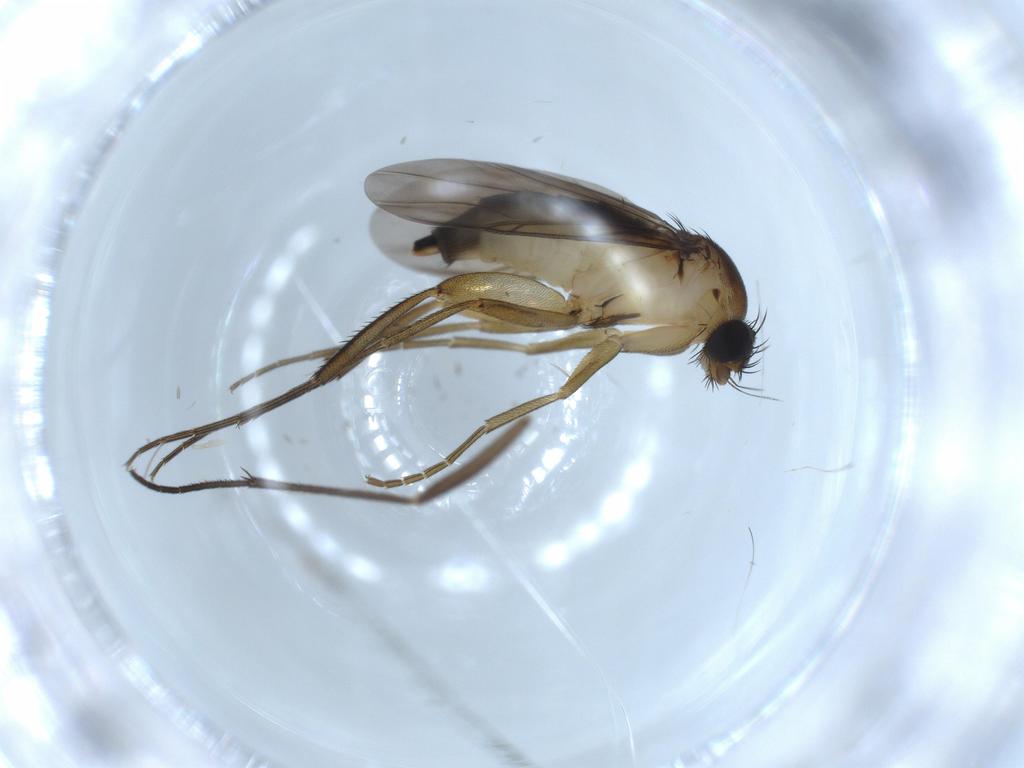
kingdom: Animalia
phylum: Arthropoda
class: Insecta
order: Diptera
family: Phoridae
